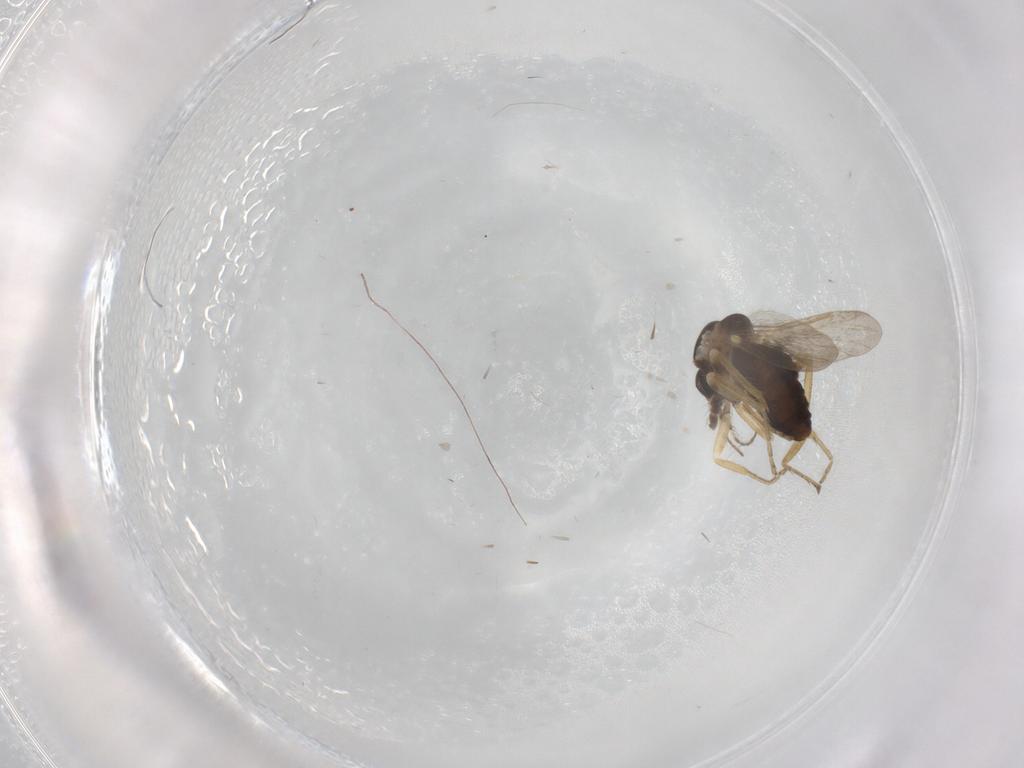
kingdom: Animalia
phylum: Arthropoda
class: Insecta
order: Diptera
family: Ceratopogonidae
